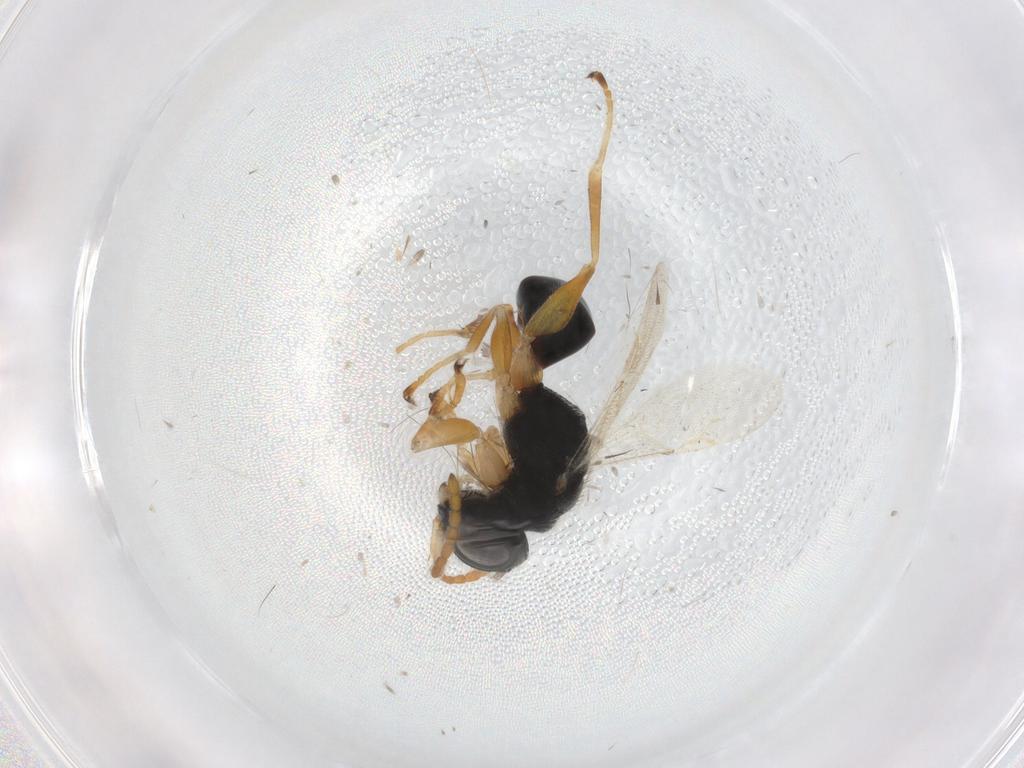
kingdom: Animalia
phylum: Arthropoda
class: Insecta
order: Hymenoptera
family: Dryinidae
